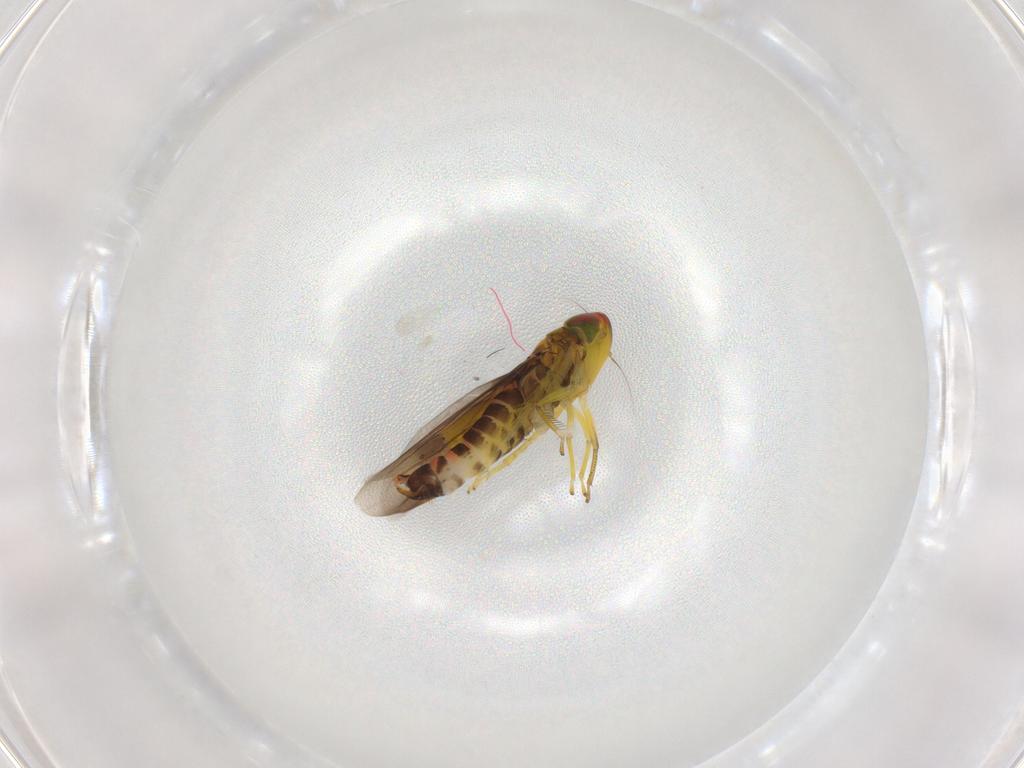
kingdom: Animalia
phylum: Arthropoda
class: Insecta
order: Hemiptera
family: Cicadellidae
